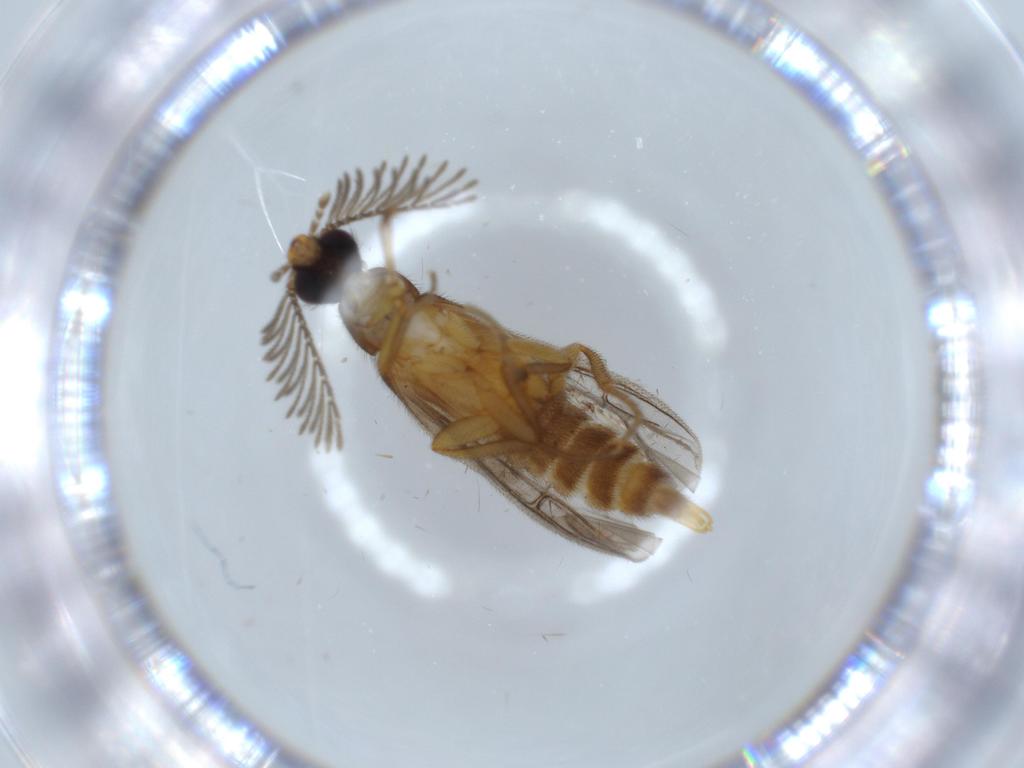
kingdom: Animalia
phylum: Arthropoda
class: Insecta
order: Coleoptera
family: Chrysomelidae
